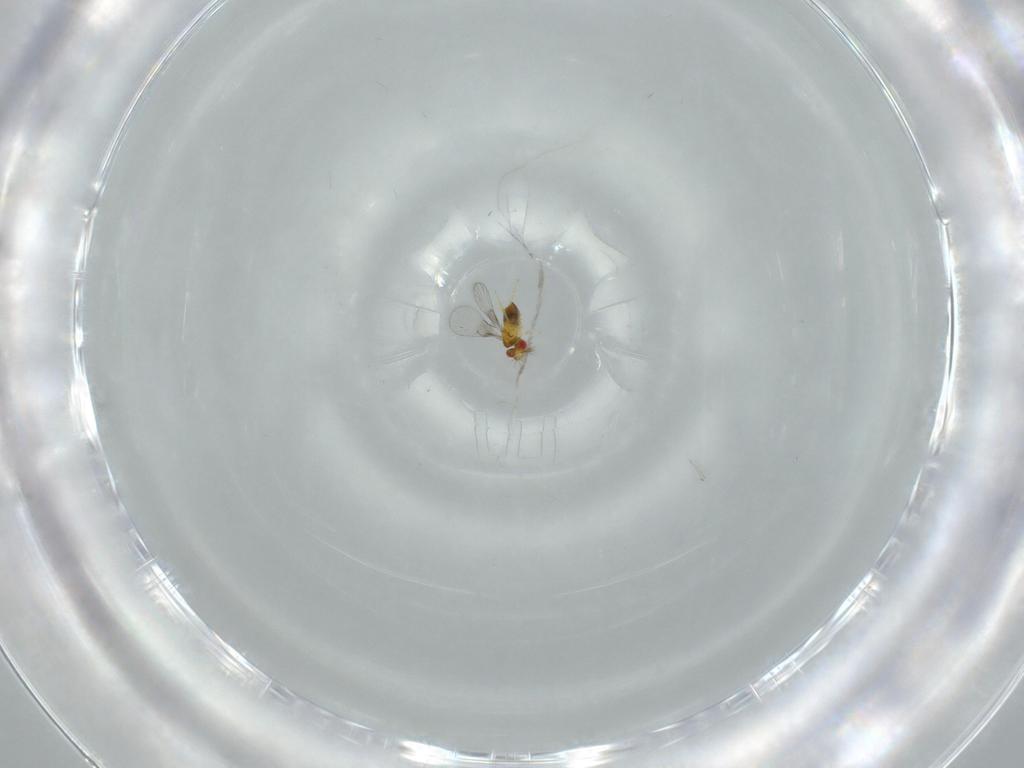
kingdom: Animalia
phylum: Arthropoda
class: Insecta
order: Hymenoptera
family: Trichogrammatidae
